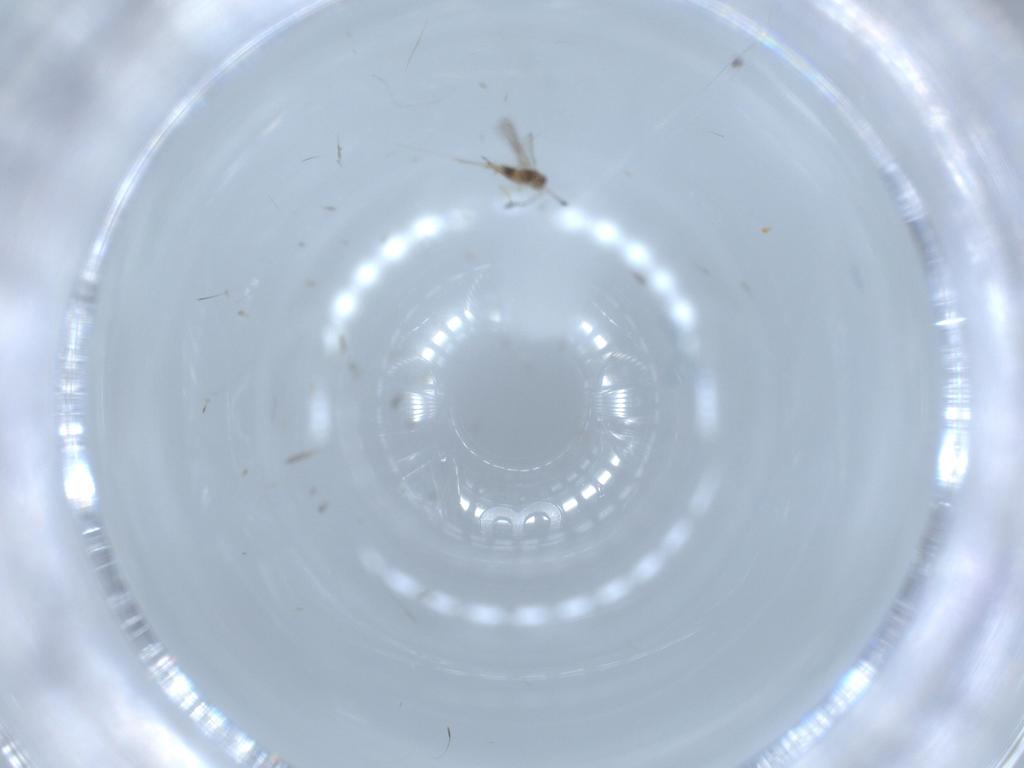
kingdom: Animalia
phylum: Arthropoda
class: Insecta
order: Hymenoptera
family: Mymaridae
